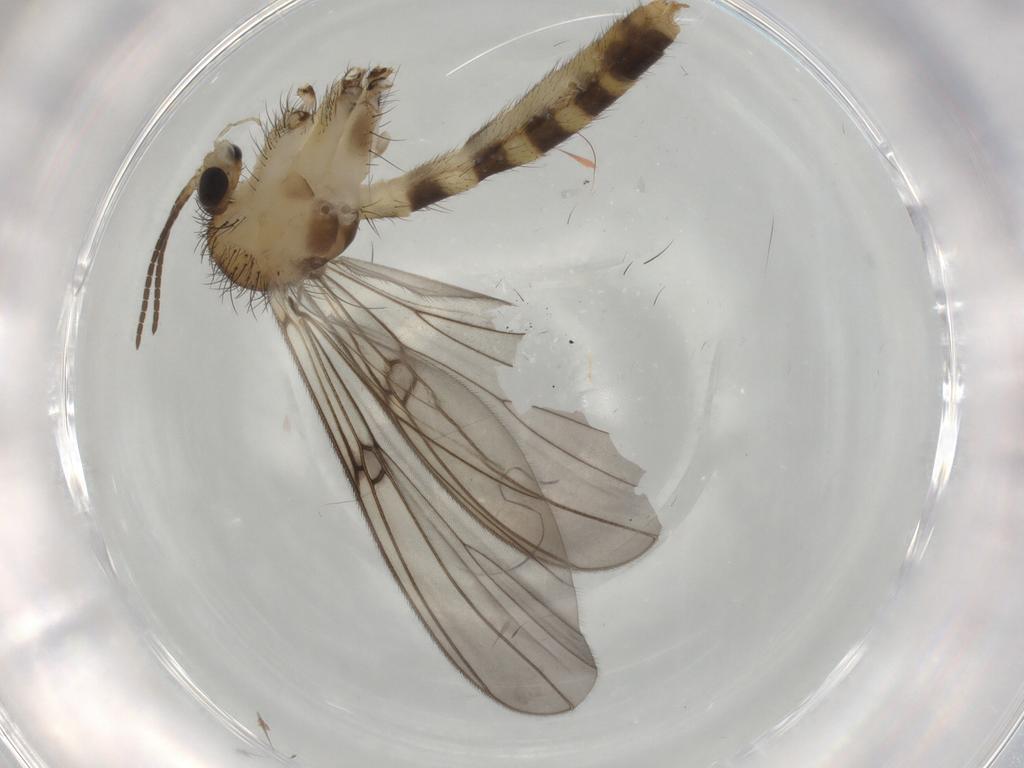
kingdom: Animalia
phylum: Arthropoda
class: Insecta
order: Diptera
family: Mycetophilidae
